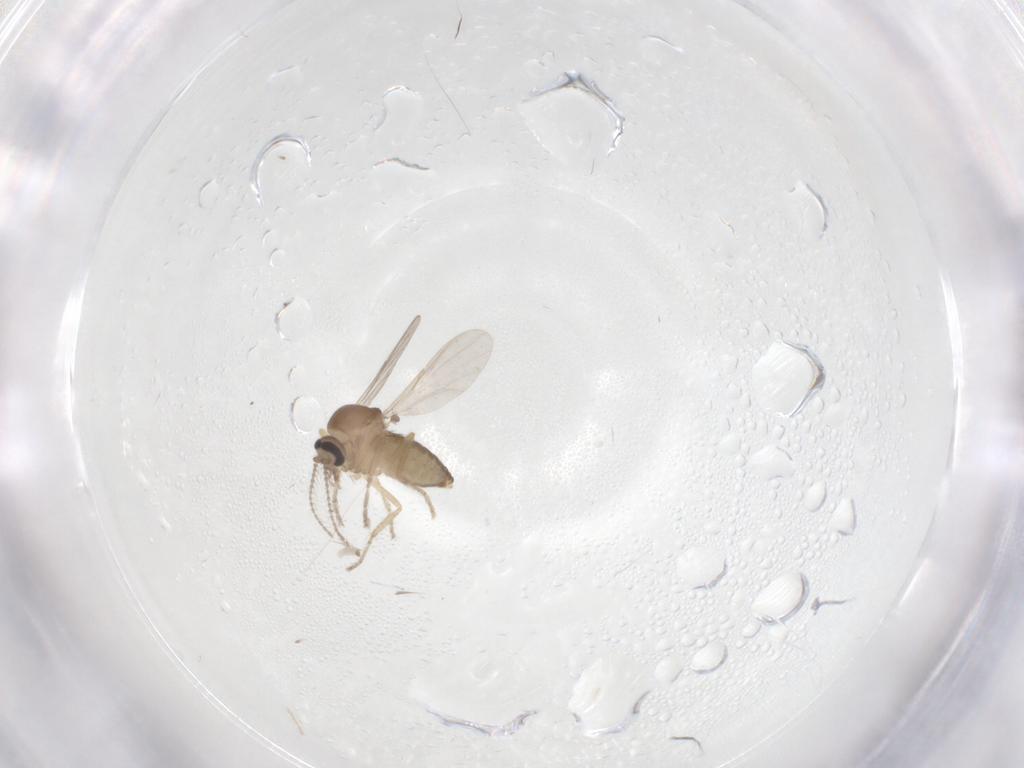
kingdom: Animalia
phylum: Arthropoda
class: Insecta
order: Diptera
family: Ceratopogonidae
